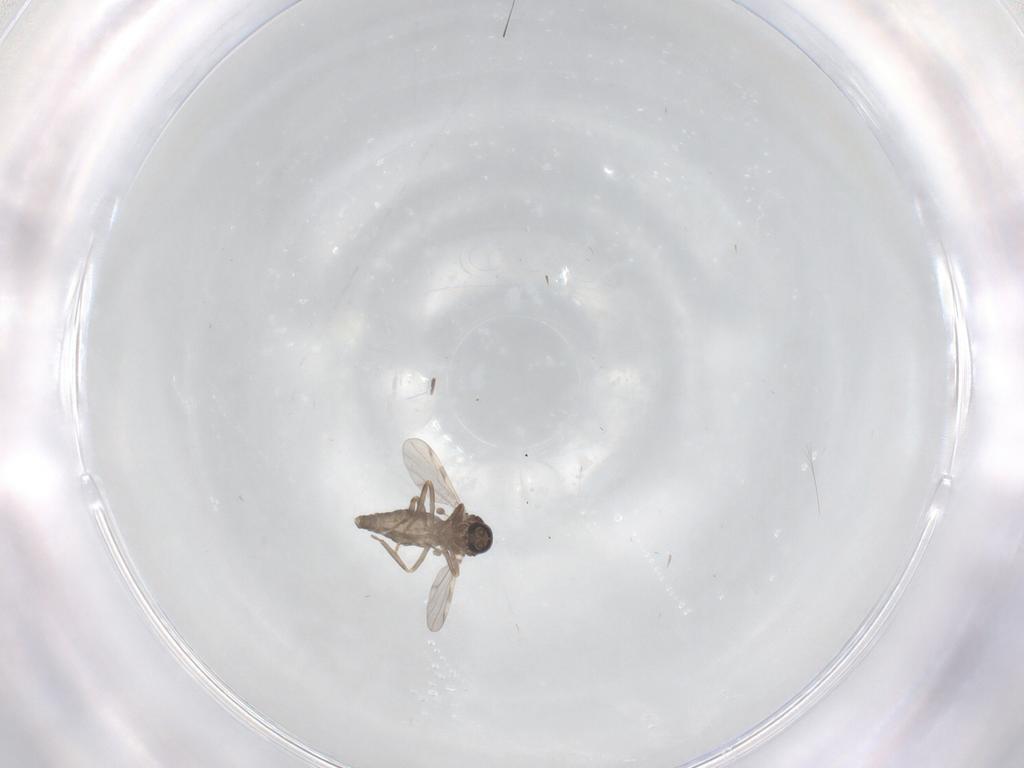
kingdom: Animalia
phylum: Arthropoda
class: Insecta
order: Diptera
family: Ceratopogonidae
